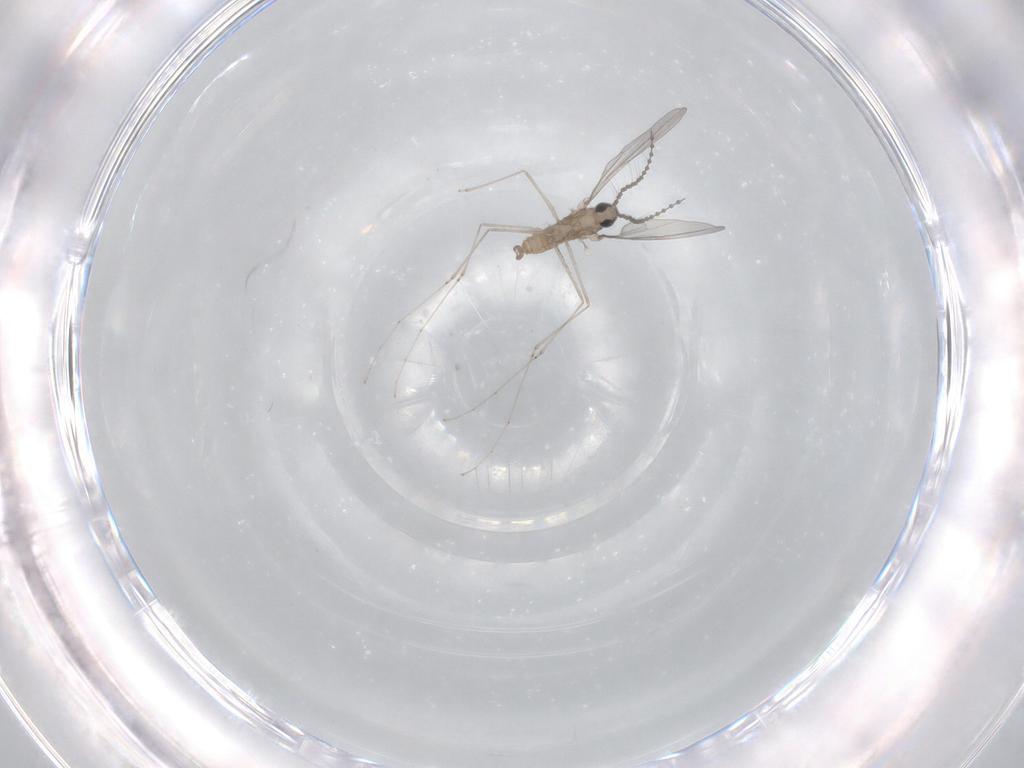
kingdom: Animalia
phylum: Arthropoda
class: Insecta
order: Diptera
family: Cecidomyiidae
